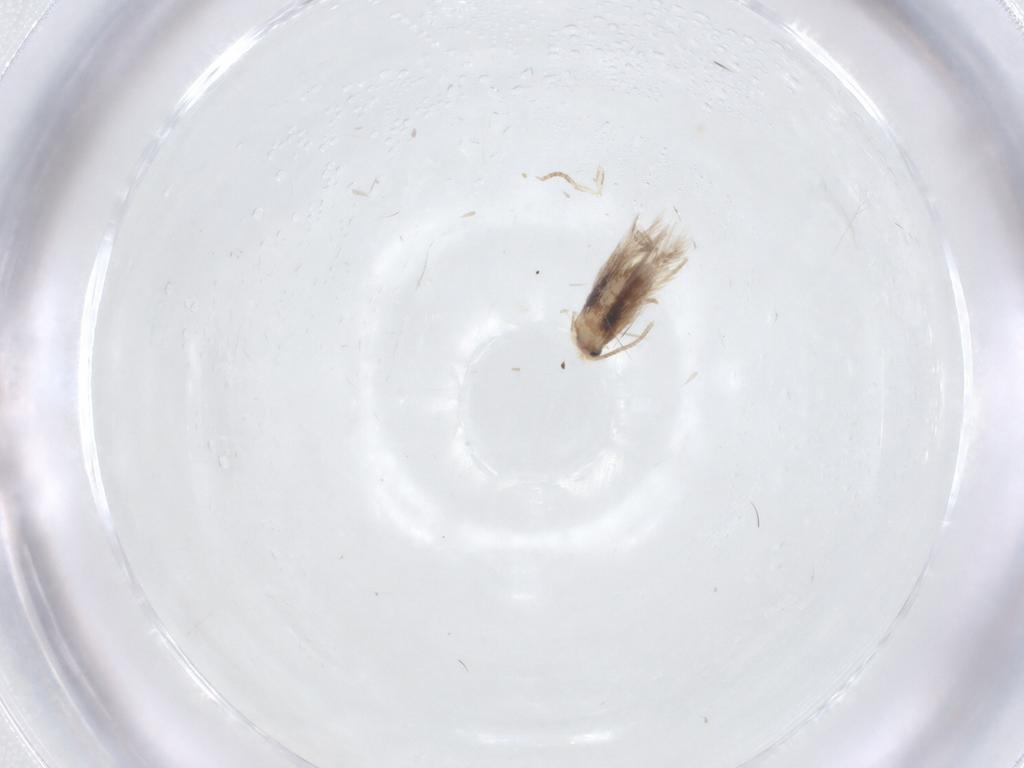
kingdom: Animalia
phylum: Arthropoda
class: Insecta
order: Lepidoptera
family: Nepticulidae
